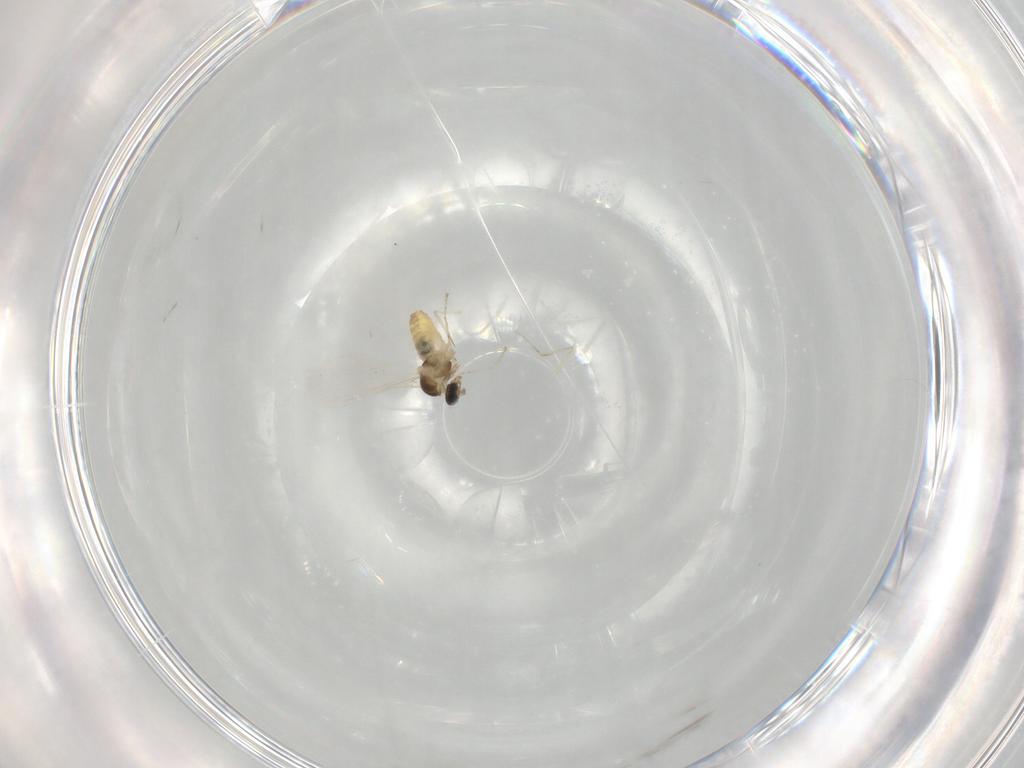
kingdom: Animalia
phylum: Arthropoda
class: Insecta
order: Diptera
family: Cecidomyiidae
